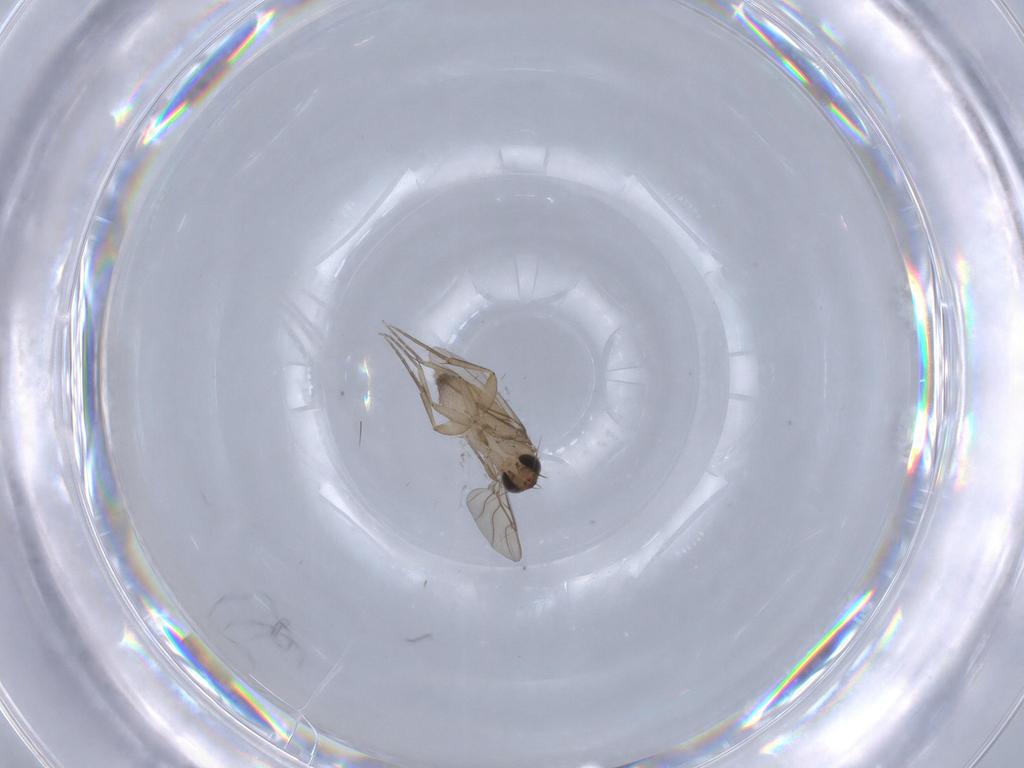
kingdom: Animalia
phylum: Arthropoda
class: Insecta
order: Diptera
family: Phoridae
